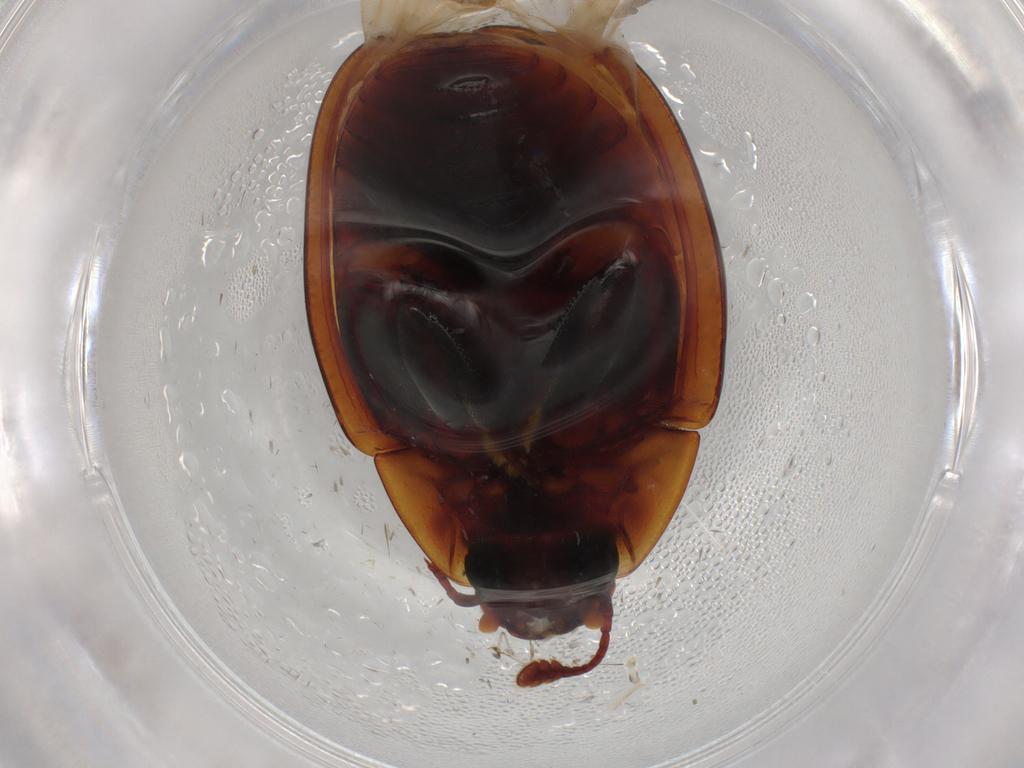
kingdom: Animalia
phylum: Arthropoda
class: Insecta
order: Coleoptera
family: Zopheridae
